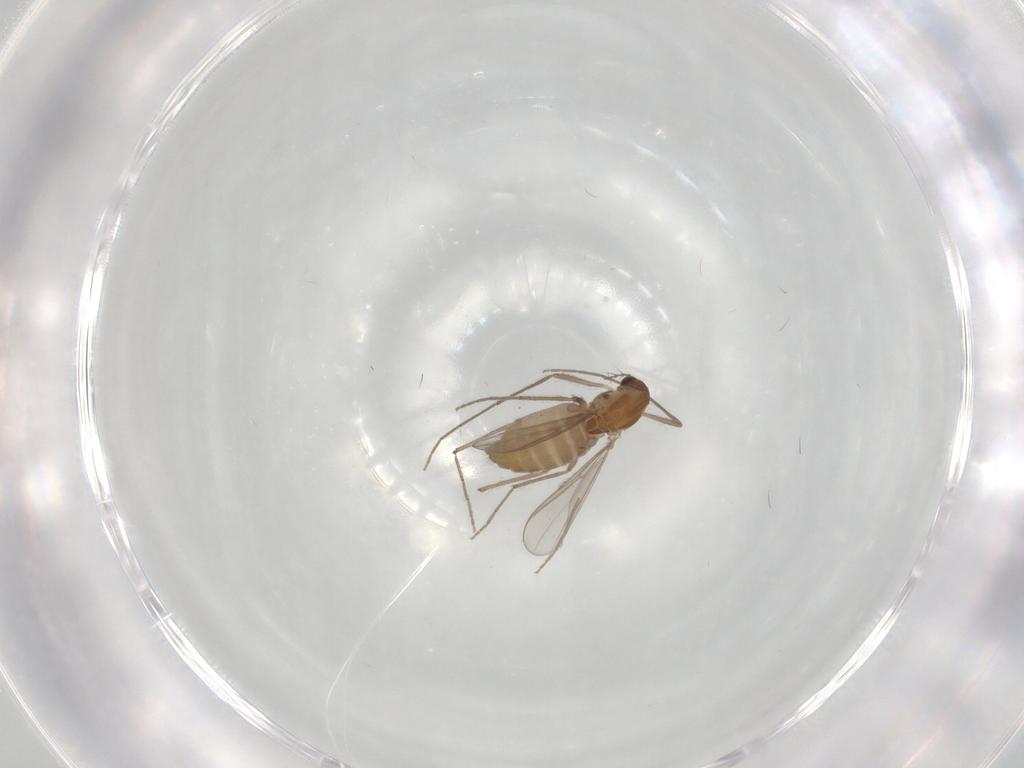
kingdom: Animalia
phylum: Arthropoda
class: Insecta
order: Diptera
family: Chironomidae
